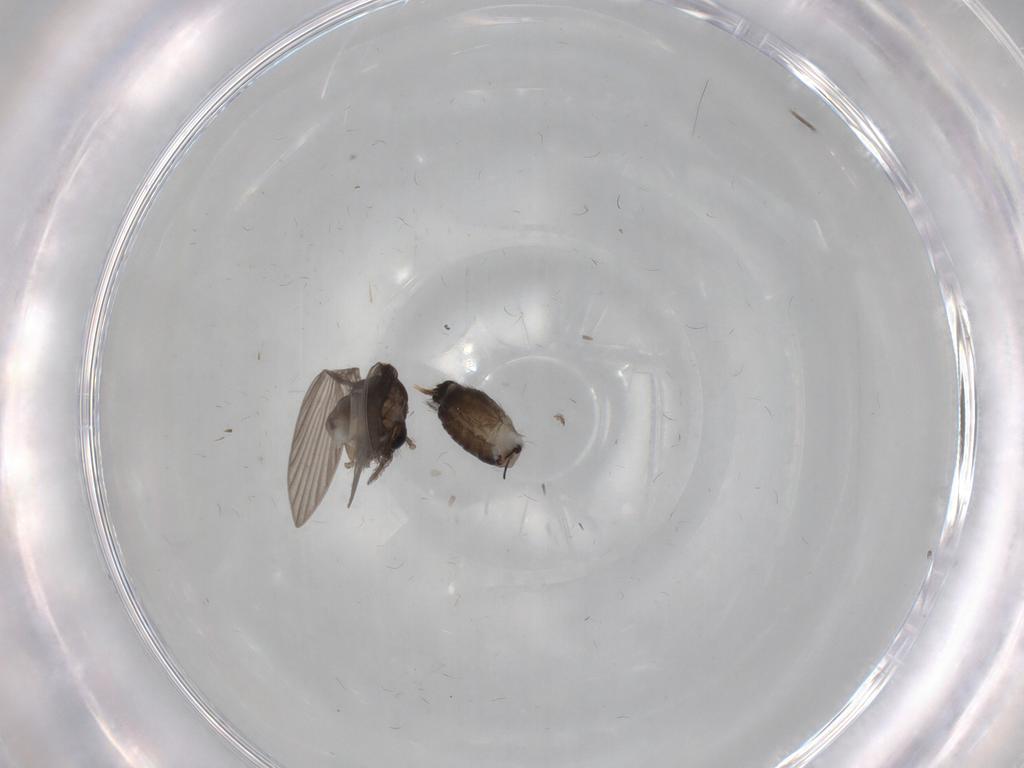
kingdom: Animalia
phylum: Arthropoda
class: Insecta
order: Diptera
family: Psychodidae
